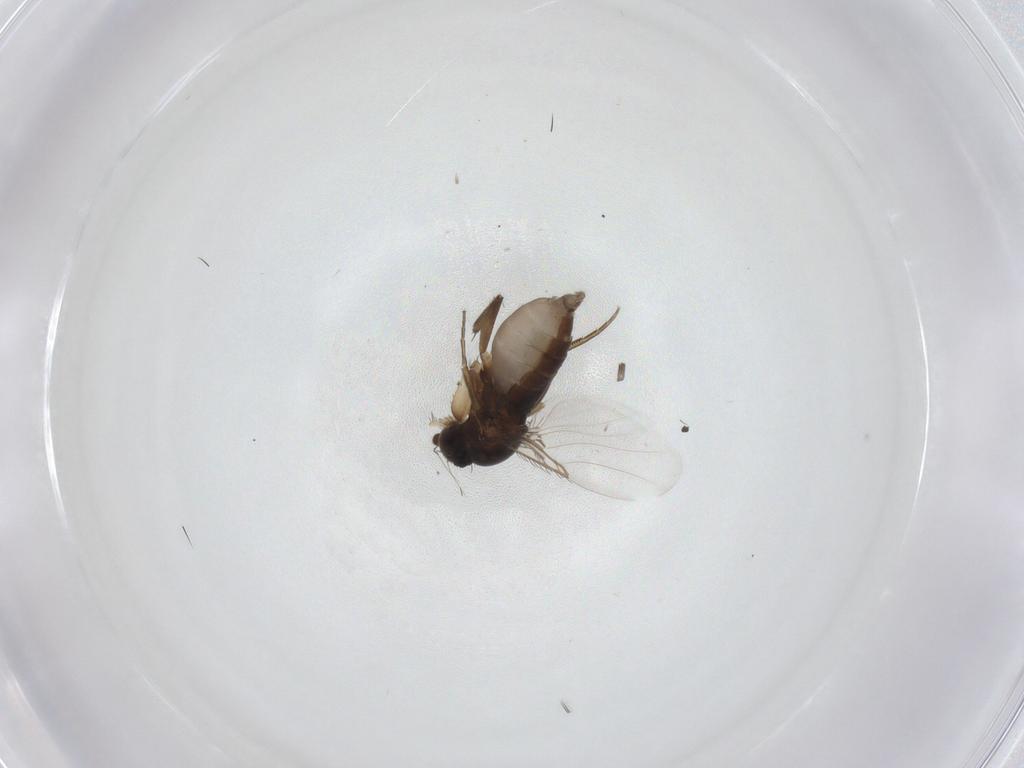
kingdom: Animalia
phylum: Arthropoda
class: Insecta
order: Diptera
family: Phoridae
